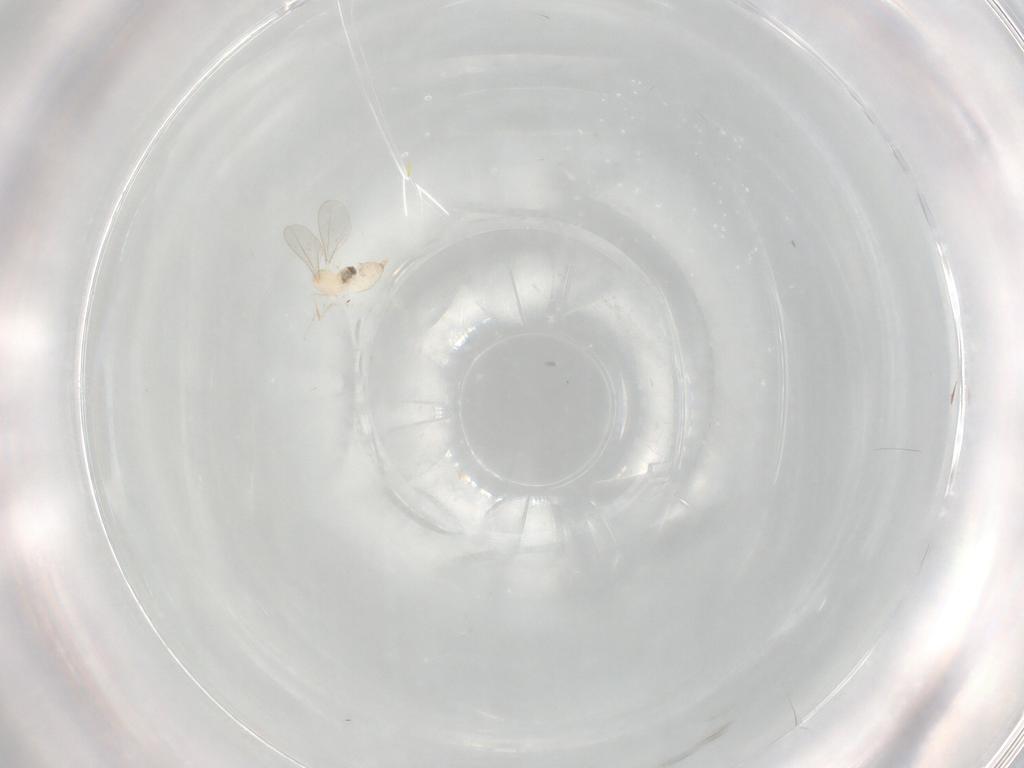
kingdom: Animalia
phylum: Arthropoda
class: Insecta
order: Diptera
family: Cecidomyiidae
